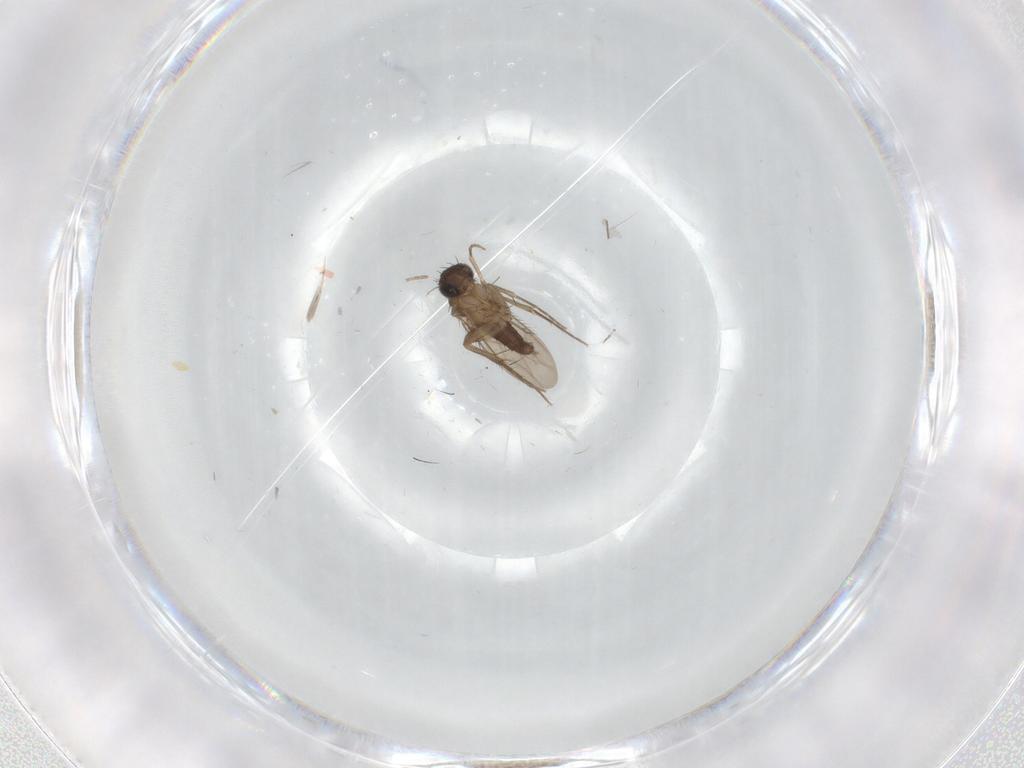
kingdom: Animalia
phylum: Arthropoda
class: Insecta
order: Diptera
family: Phoridae
